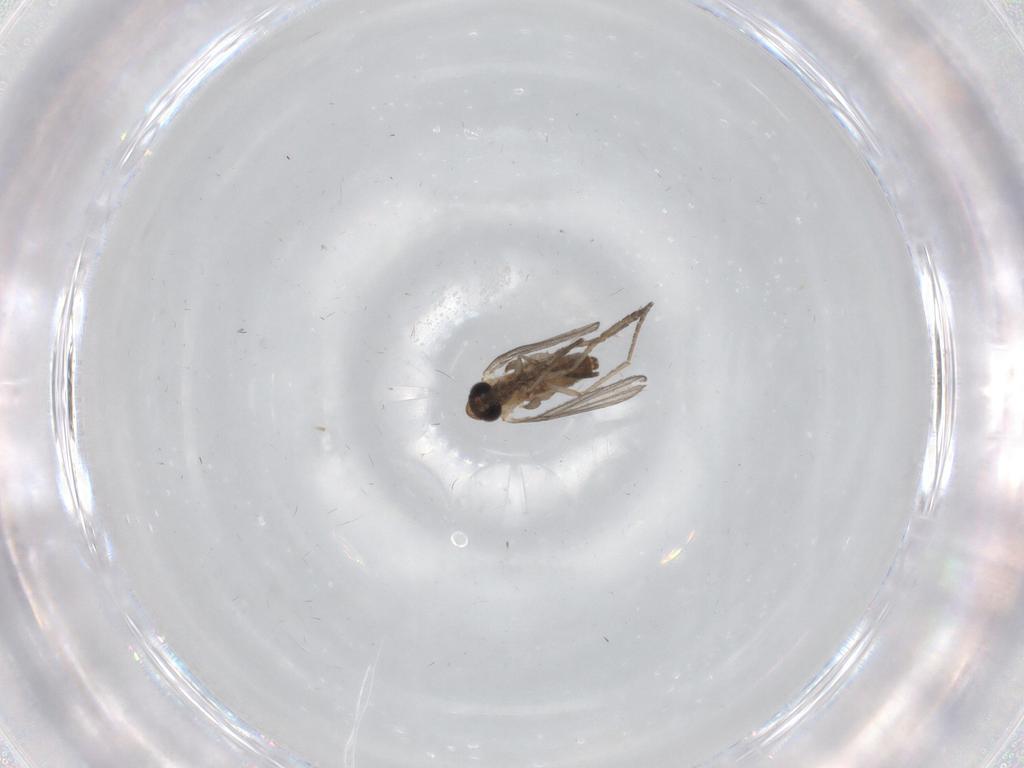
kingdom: Animalia
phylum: Arthropoda
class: Insecta
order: Diptera
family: Psychodidae
